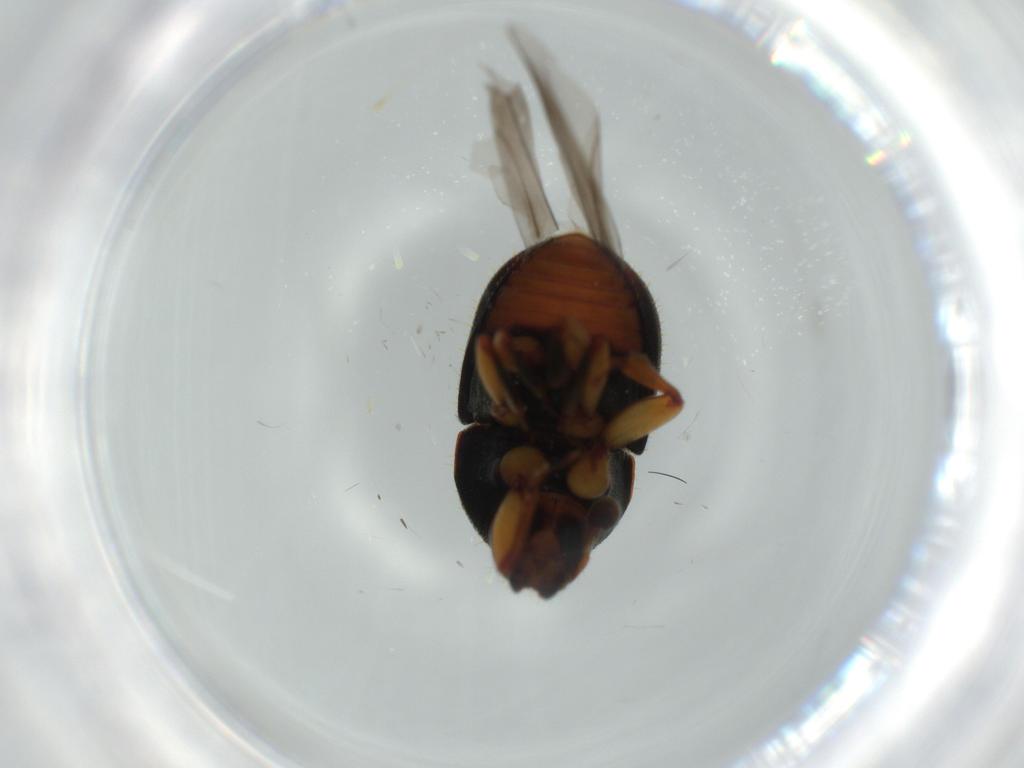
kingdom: Animalia
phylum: Arthropoda
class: Insecta
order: Coleoptera
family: Curculionidae
